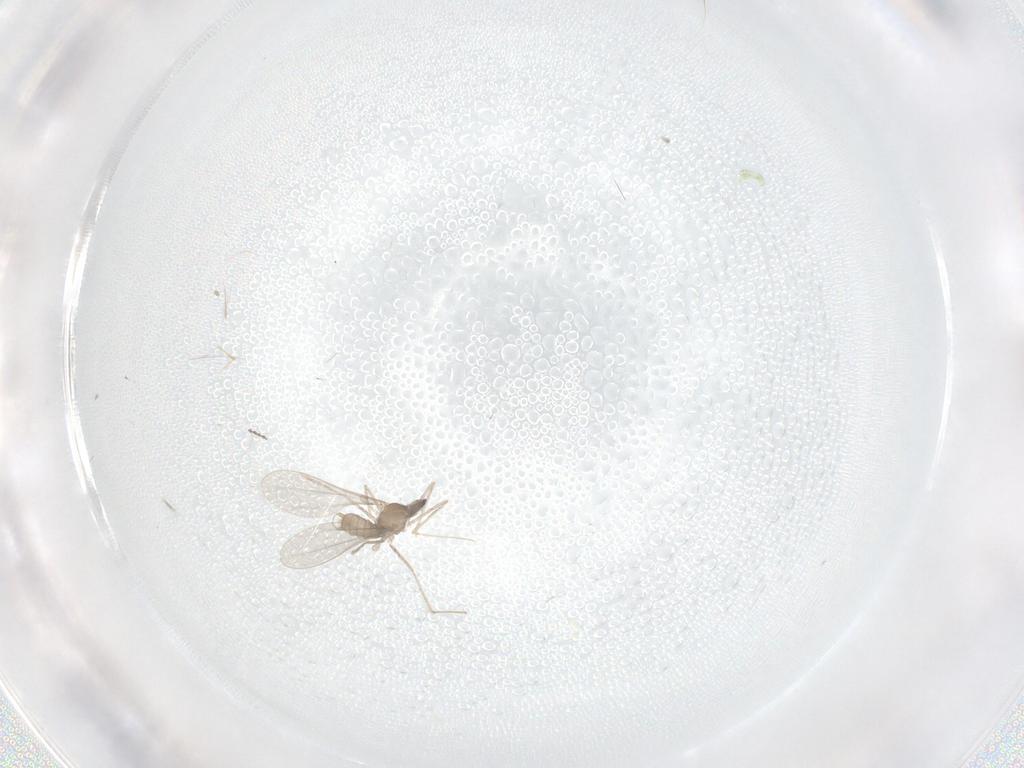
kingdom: Animalia
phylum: Arthropoda
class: Insecta
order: Diptera
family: Cecidomyiidae
